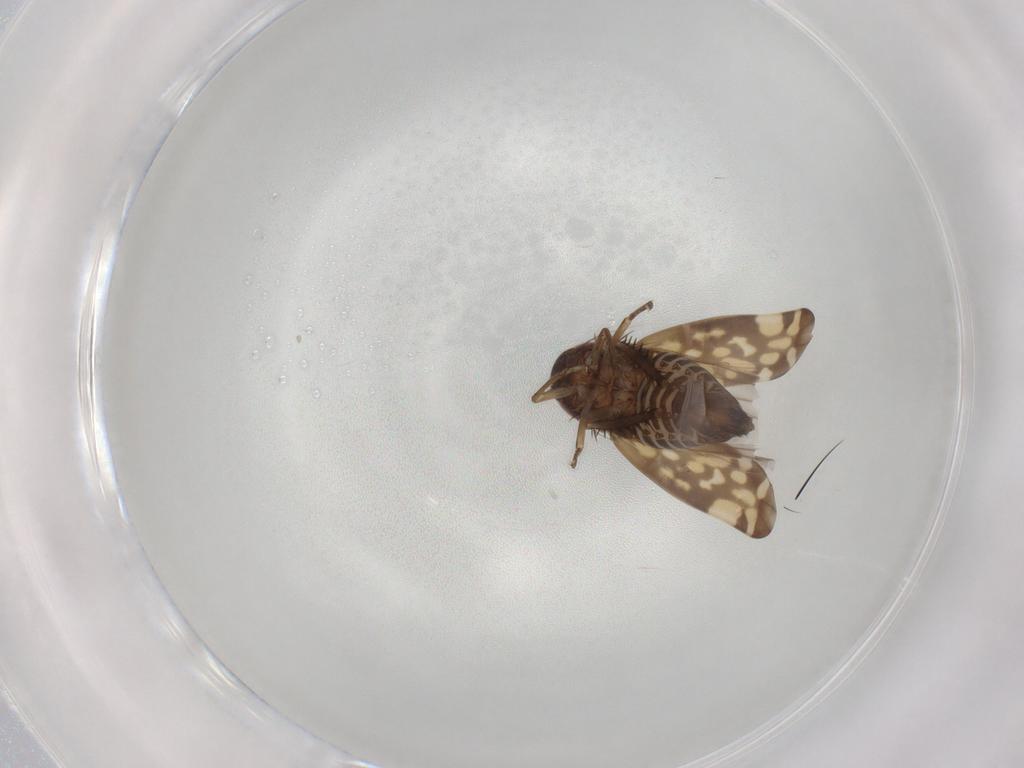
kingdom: Animalia
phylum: Arthropoda
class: Insecta
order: Hemiptera
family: Cicadellidae
